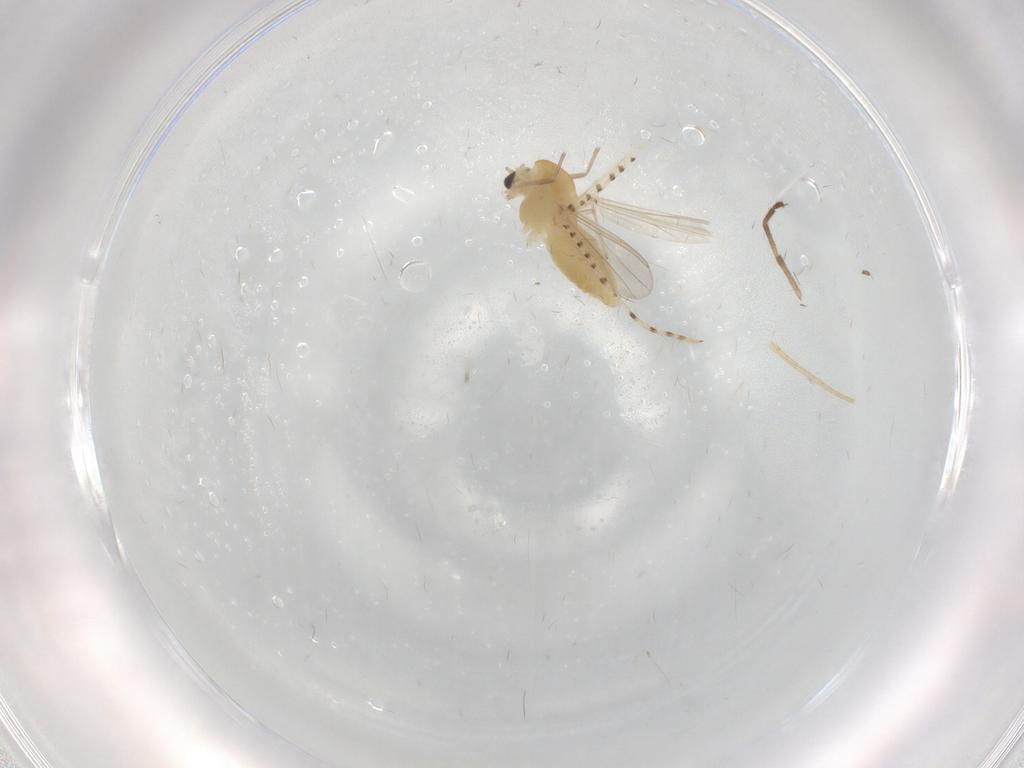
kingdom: Animalia
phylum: Arthropoda
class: Insecta
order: Diptera
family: Chironomidae
